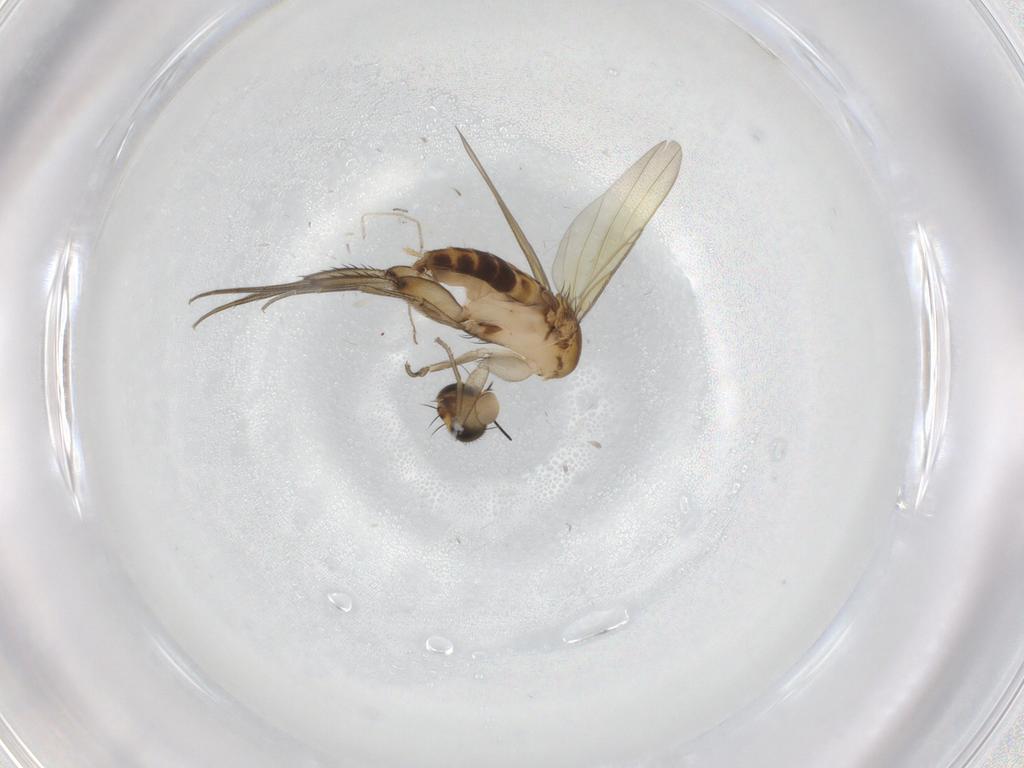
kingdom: Animalia
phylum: Arthropoda
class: Insecta
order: Diptera
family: Phoridae
